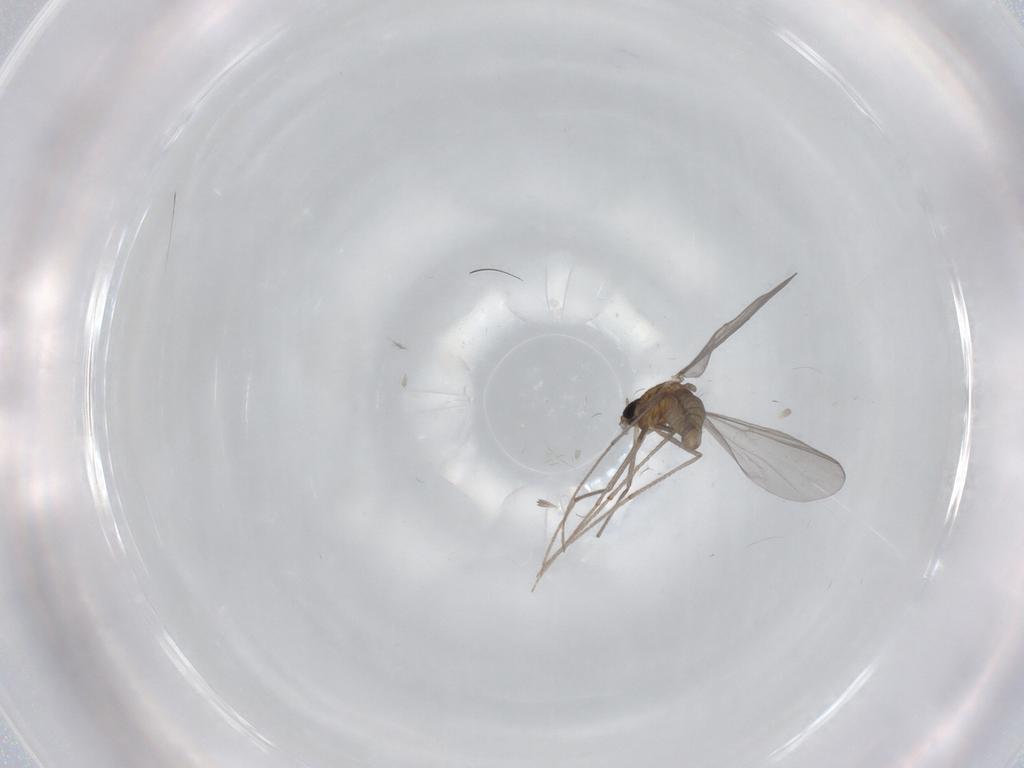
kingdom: Animalia
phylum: Arthropoda
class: Insecta
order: Diptera
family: Chironomidae
